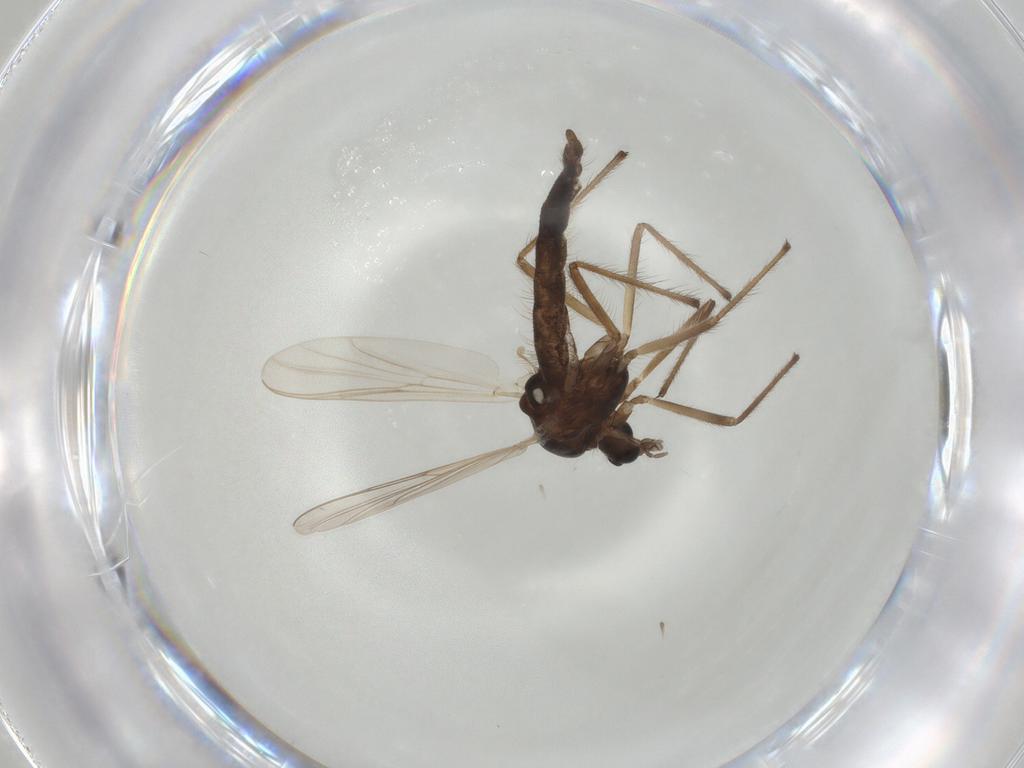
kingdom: Animalia
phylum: Arthropoda
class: Insecta
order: Diptera
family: Chironomidae
